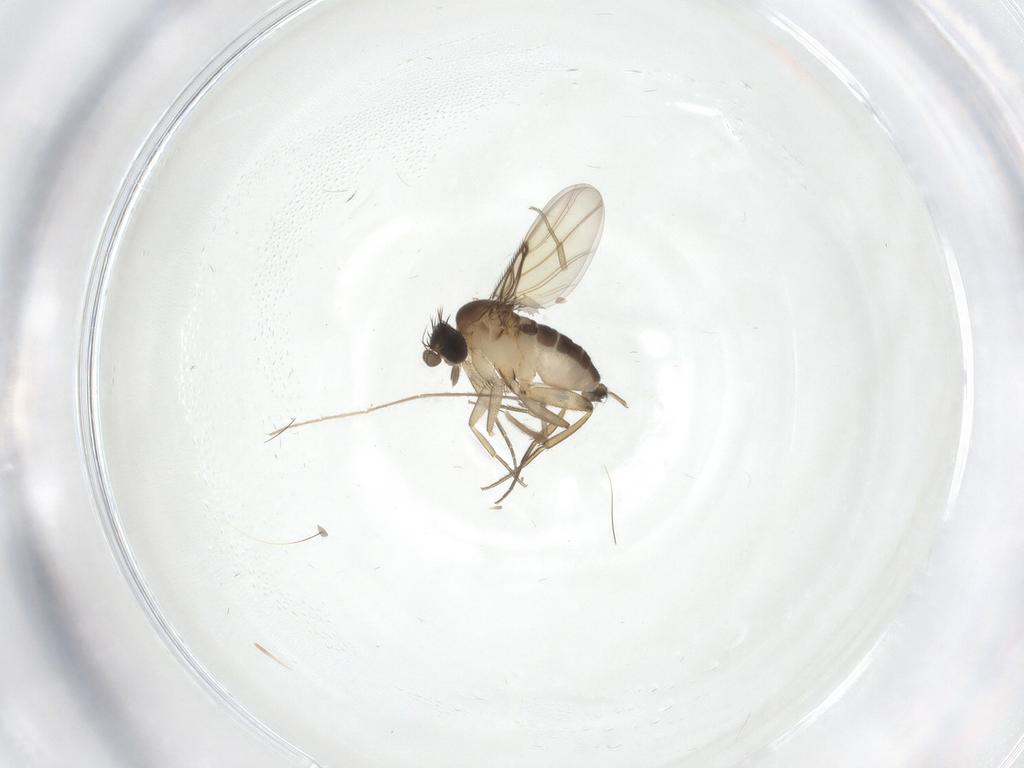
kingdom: Animalia
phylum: Arthropoda
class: Insecta
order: Diptera
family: Phoridae
